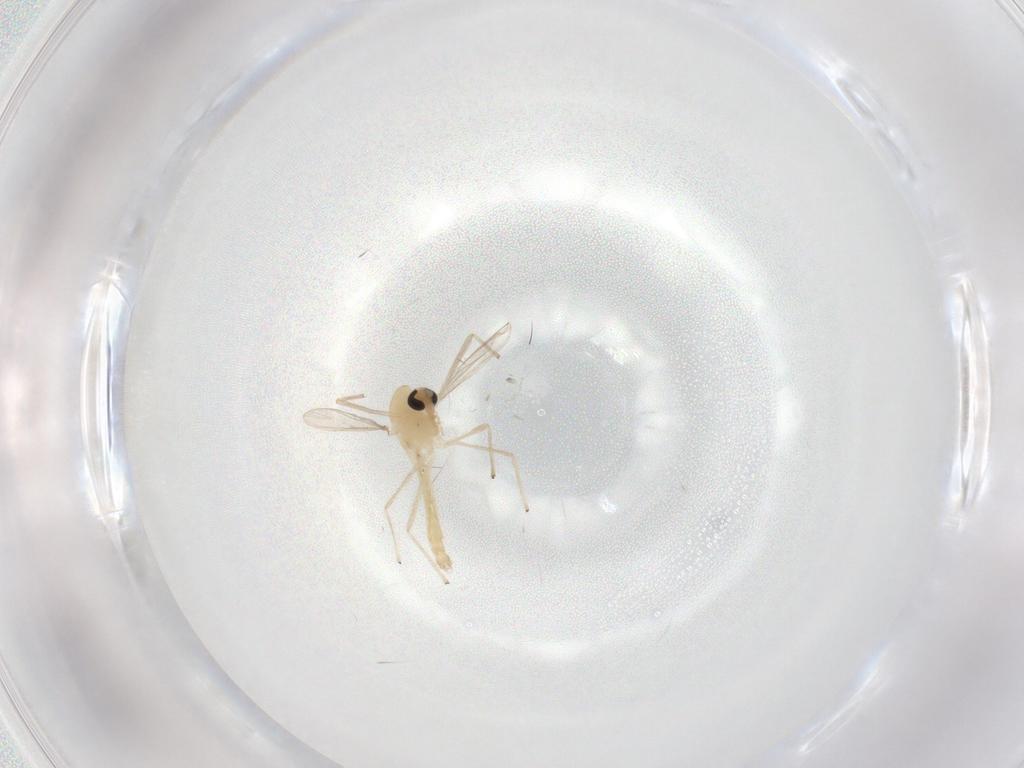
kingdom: Animalia
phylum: Arthropoda
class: Insecta
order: Diptera
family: Chironomidae
